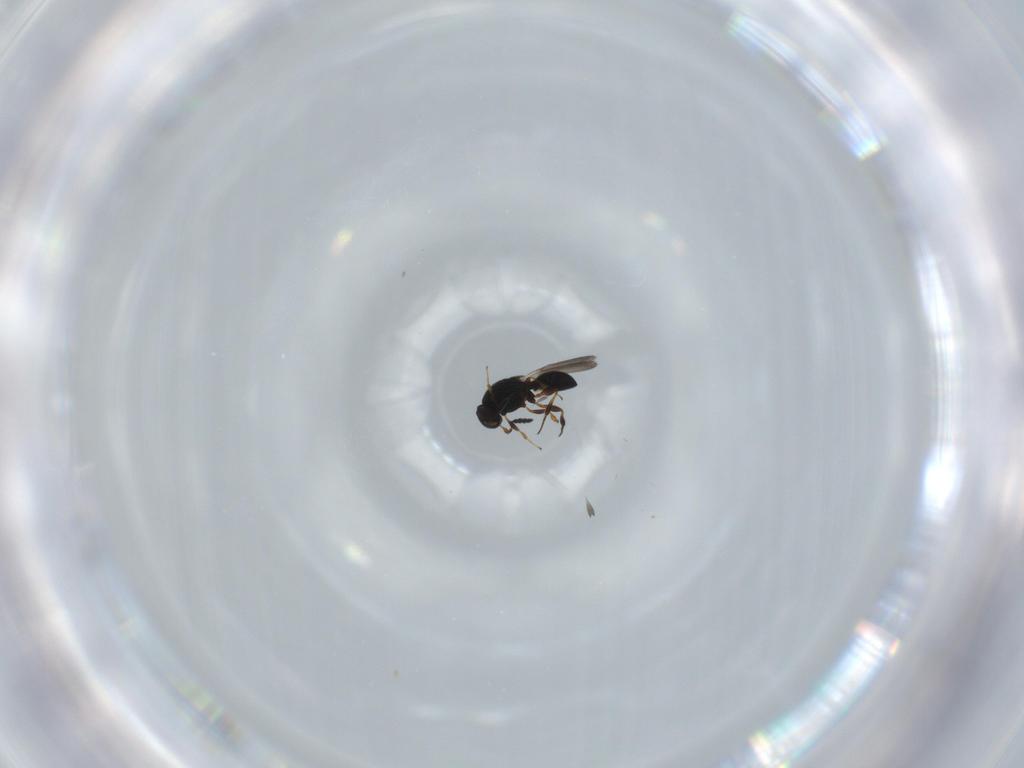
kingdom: Animalia
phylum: Arthropoda
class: Insecta
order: Hymenoptera
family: Platygastridae
